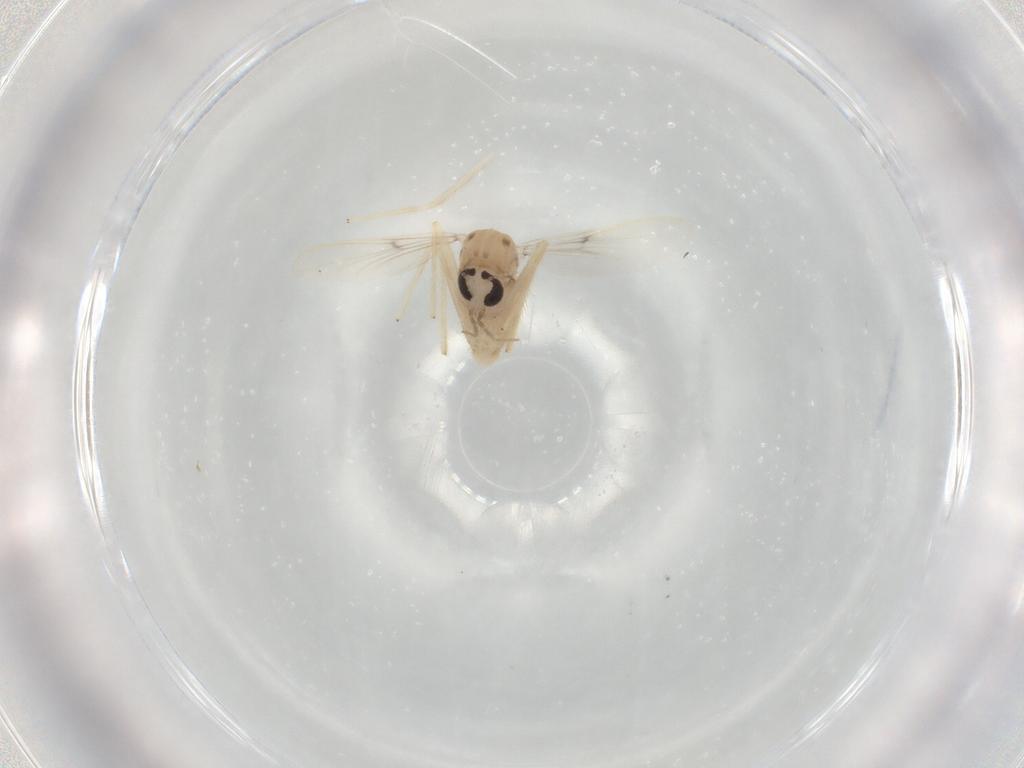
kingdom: Animalia
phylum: Arthropoda
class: Insecta
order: Diptera
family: Chironomidae
